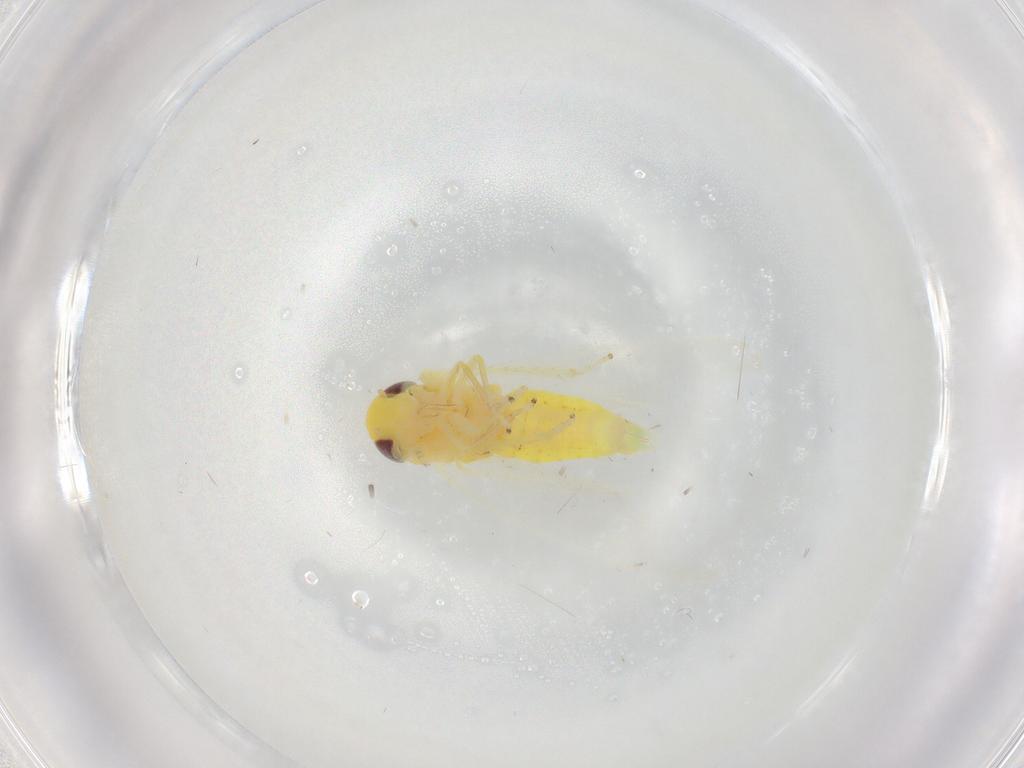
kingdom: Animalia
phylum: Arthropoda
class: Insecta
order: Hemiptera
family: Cicadellidae
